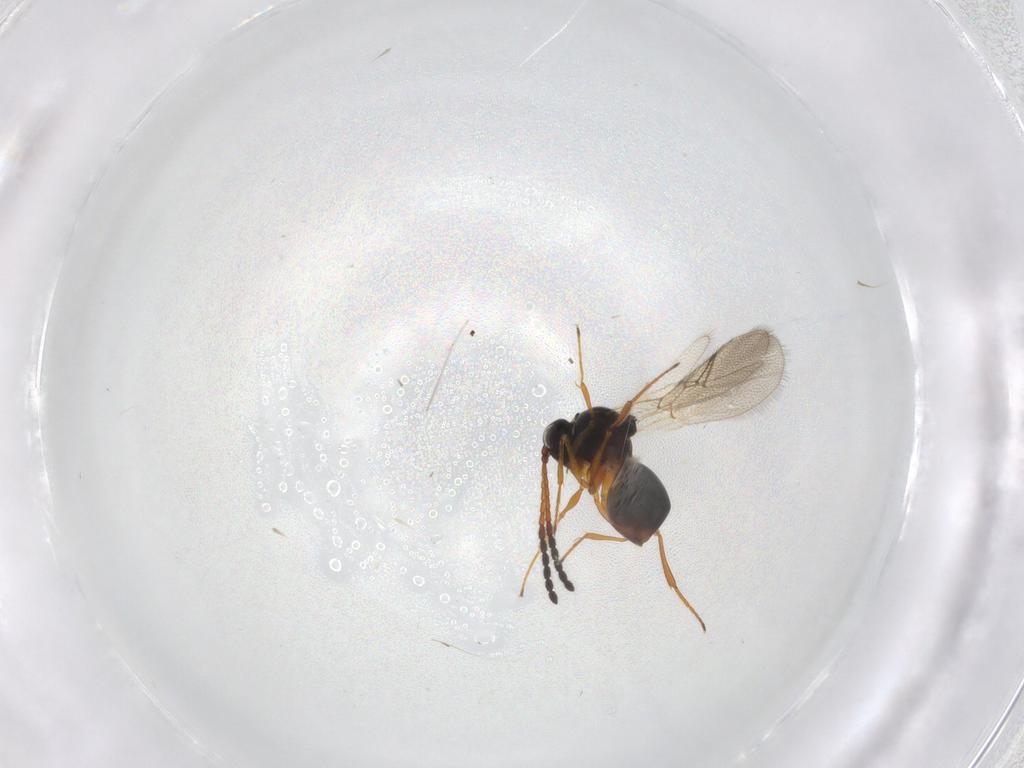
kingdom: Animalia
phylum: Arthropoda
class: Insecta
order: Hymenoptera
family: Figitidae
